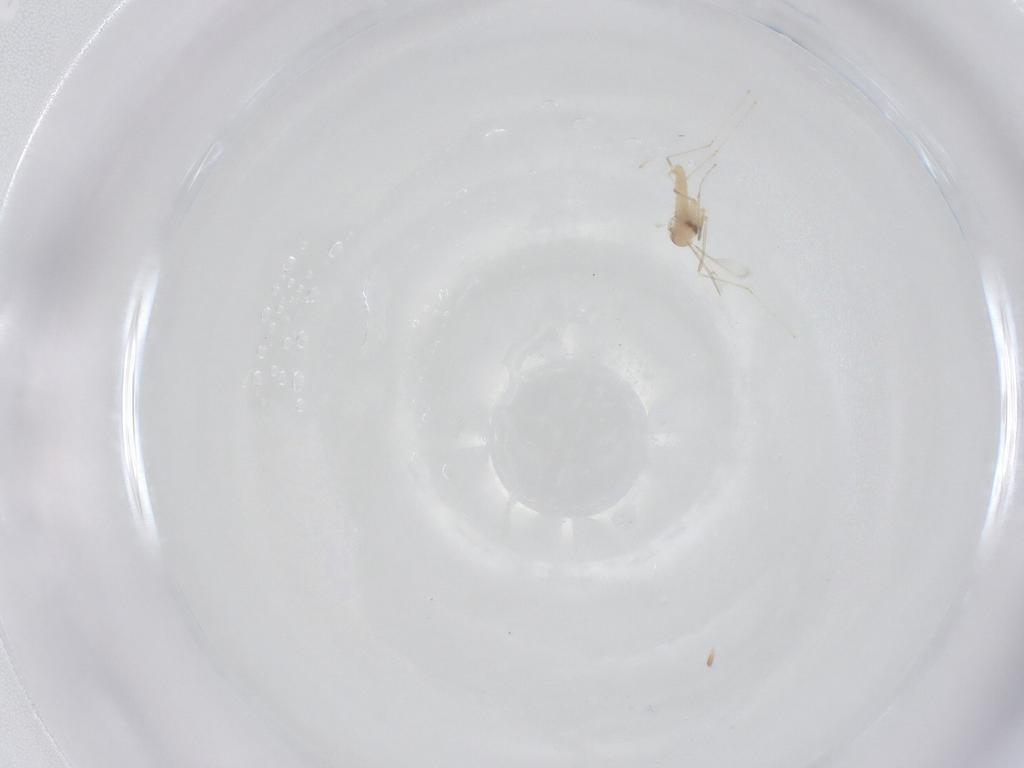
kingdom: Animalia
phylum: Arthropoda
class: Insecta
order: Diptera
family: Cecidomyiidae
